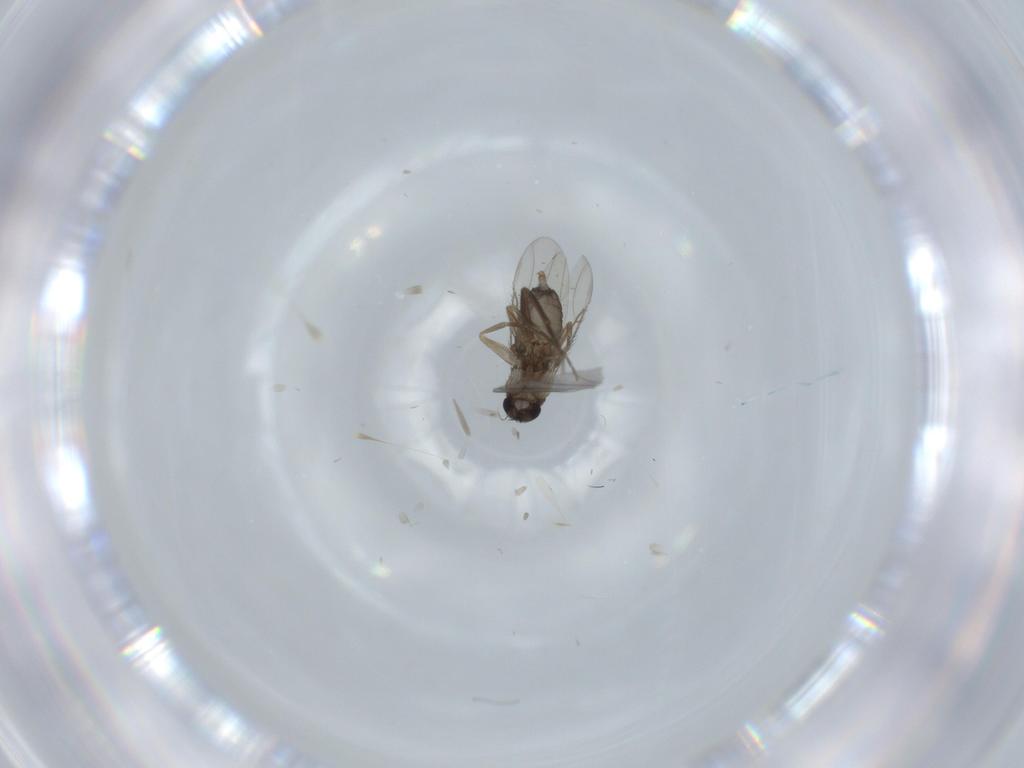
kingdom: Animalia
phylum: Arthropoda
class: Insecta
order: Diptera
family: Phoridae
